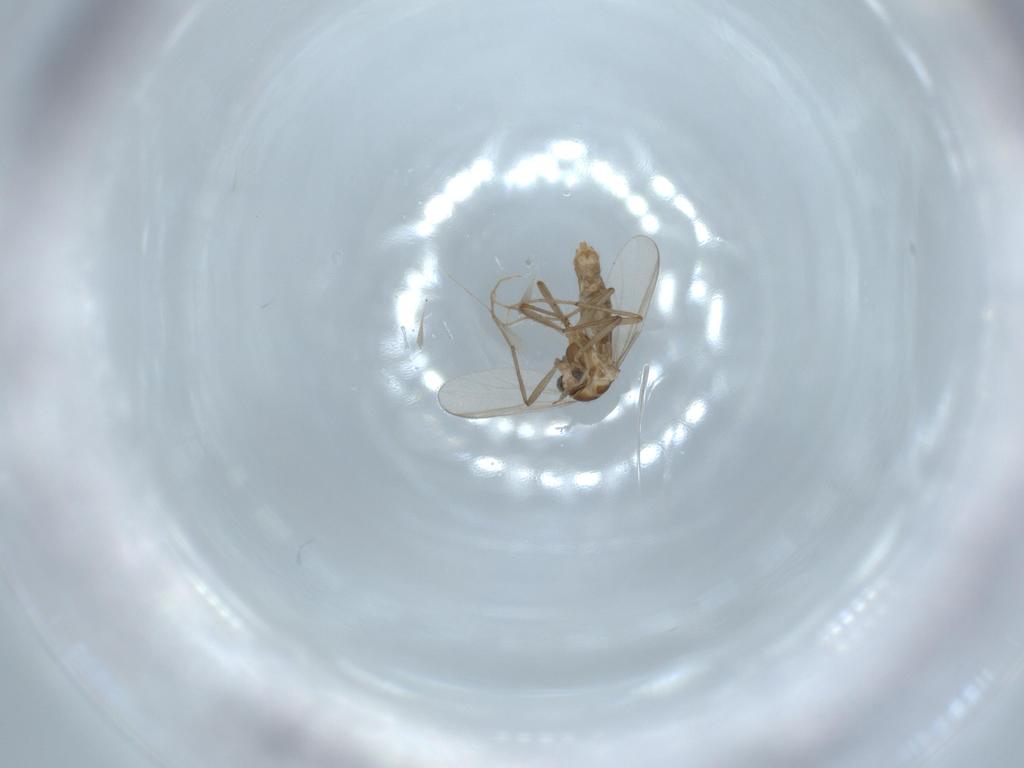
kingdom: Animalia
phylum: Arthropoda
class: Insecta
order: Diptera
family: Chironomidae
